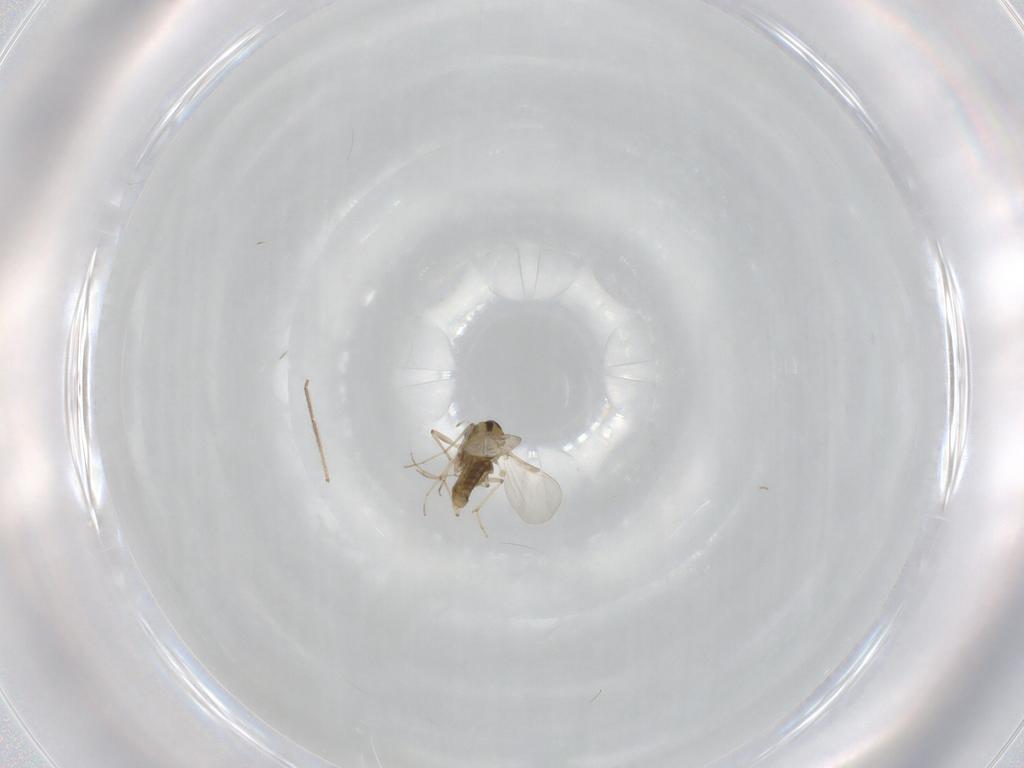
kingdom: Animalia
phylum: Arthropoda
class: Insecta
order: Diptera
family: Chironomidae
